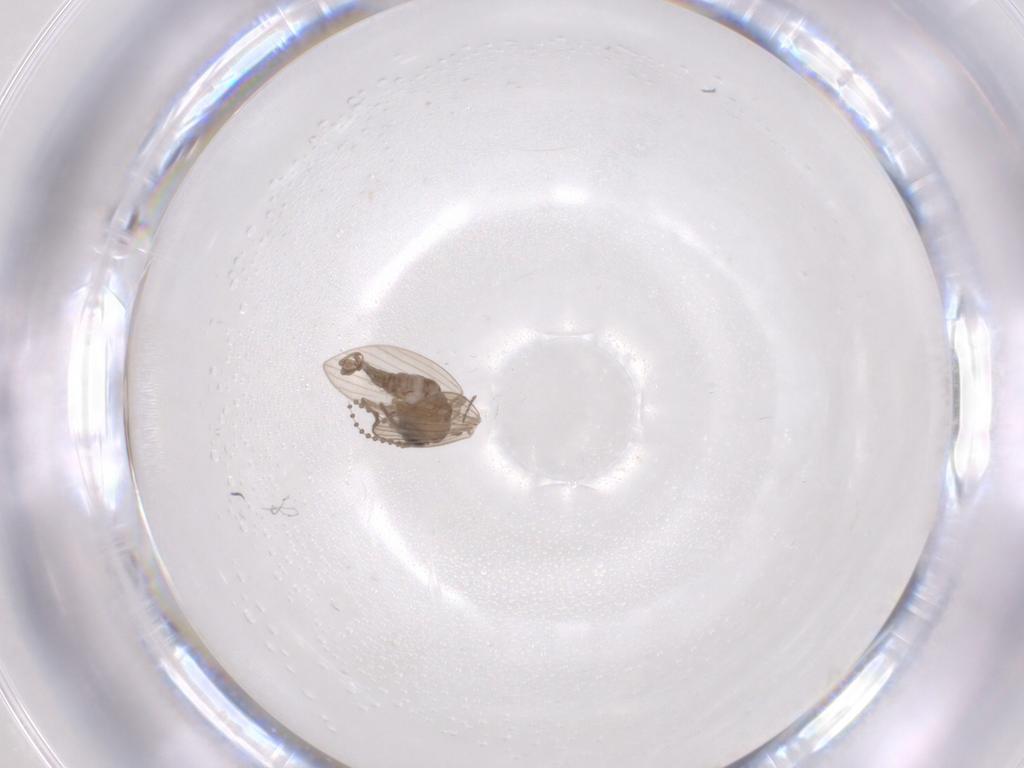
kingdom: Animalia
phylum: Arthropoda
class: Insecta
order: Diptera
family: Psychodidae
